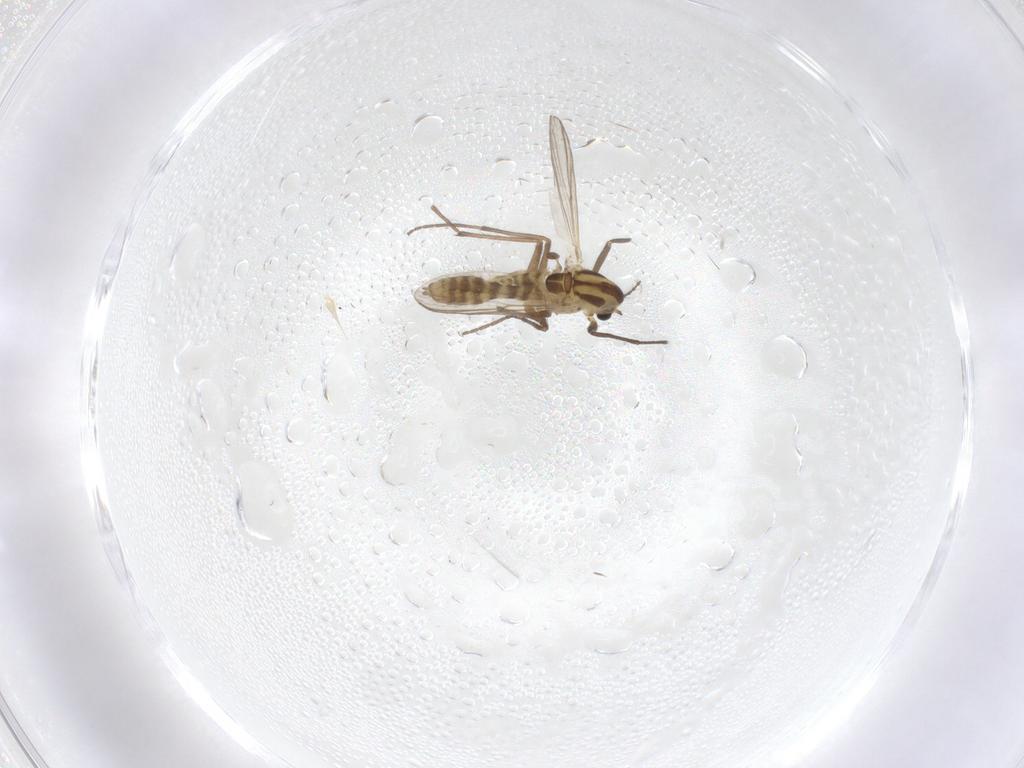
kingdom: Animalia
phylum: Arthropoda
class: Insecta
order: Diptera
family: Chironomidae
